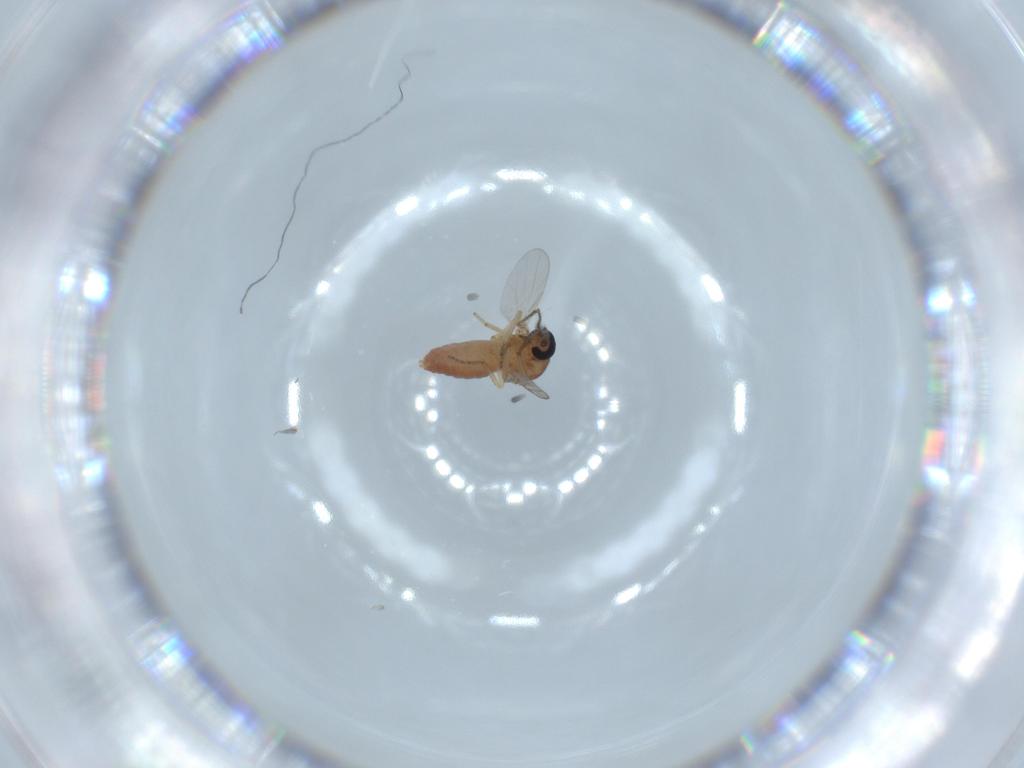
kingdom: Animalia
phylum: Arthropoda
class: Insecta
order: Diptera
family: Ceratopogonidae
